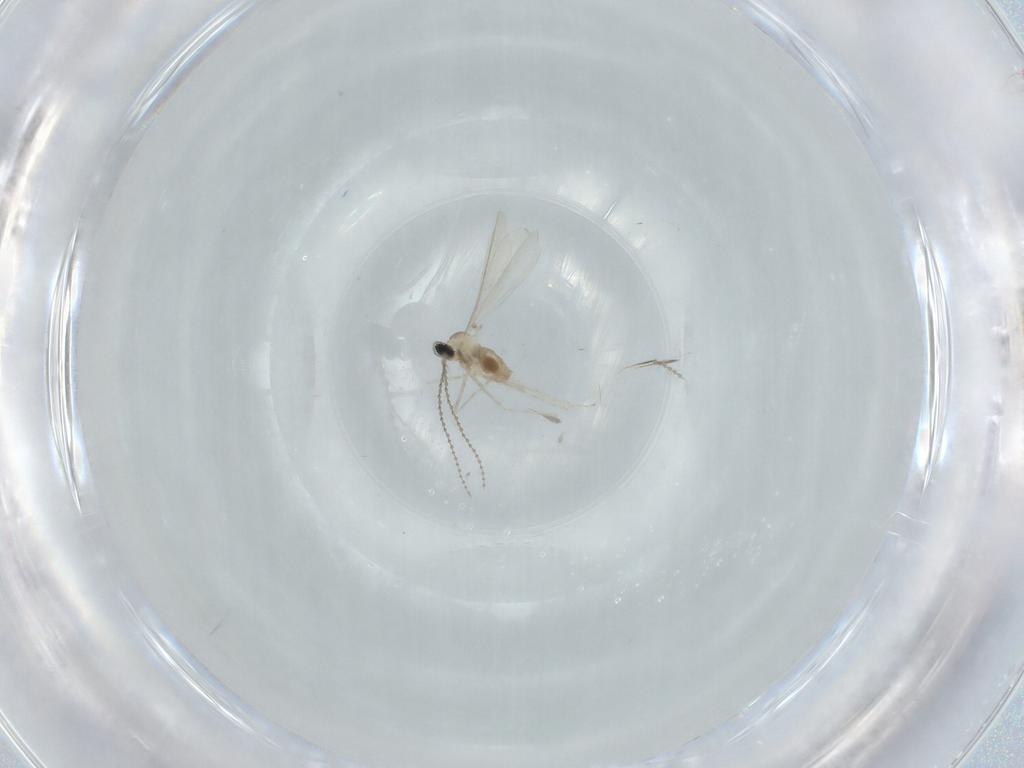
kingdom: Animalia
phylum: Arthropoda
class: Insecta
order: Diptera
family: Cecidomyiidae
